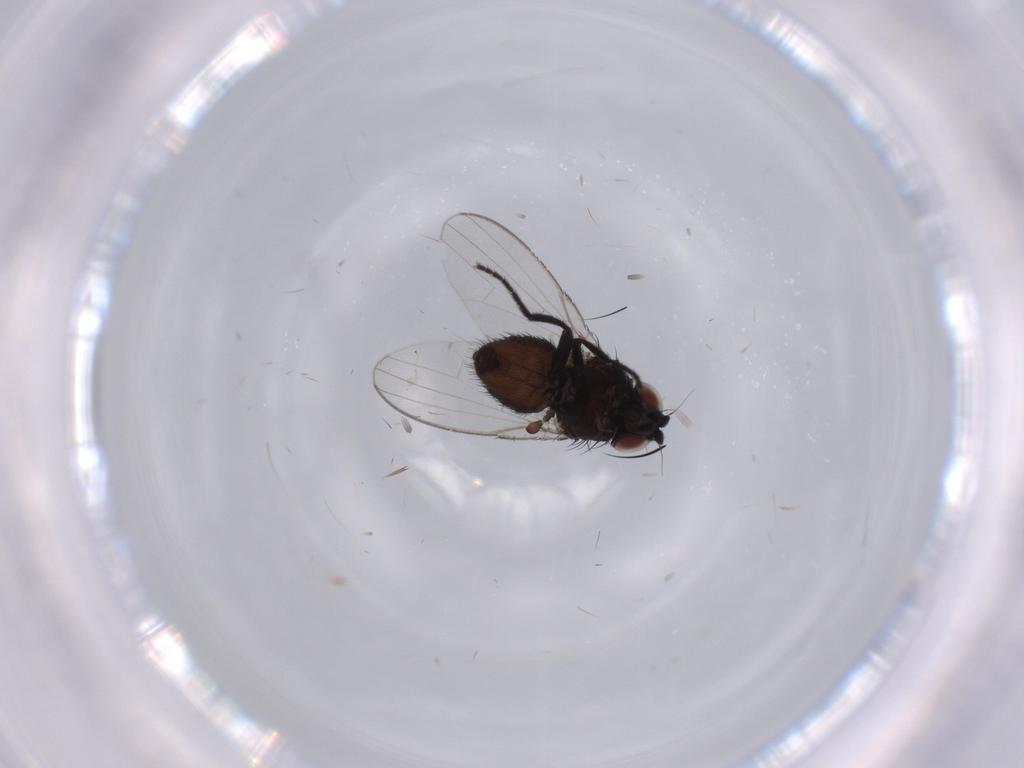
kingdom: Animalia
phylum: Arthropoda
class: Insecta
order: Diptera
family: Milichiidae
